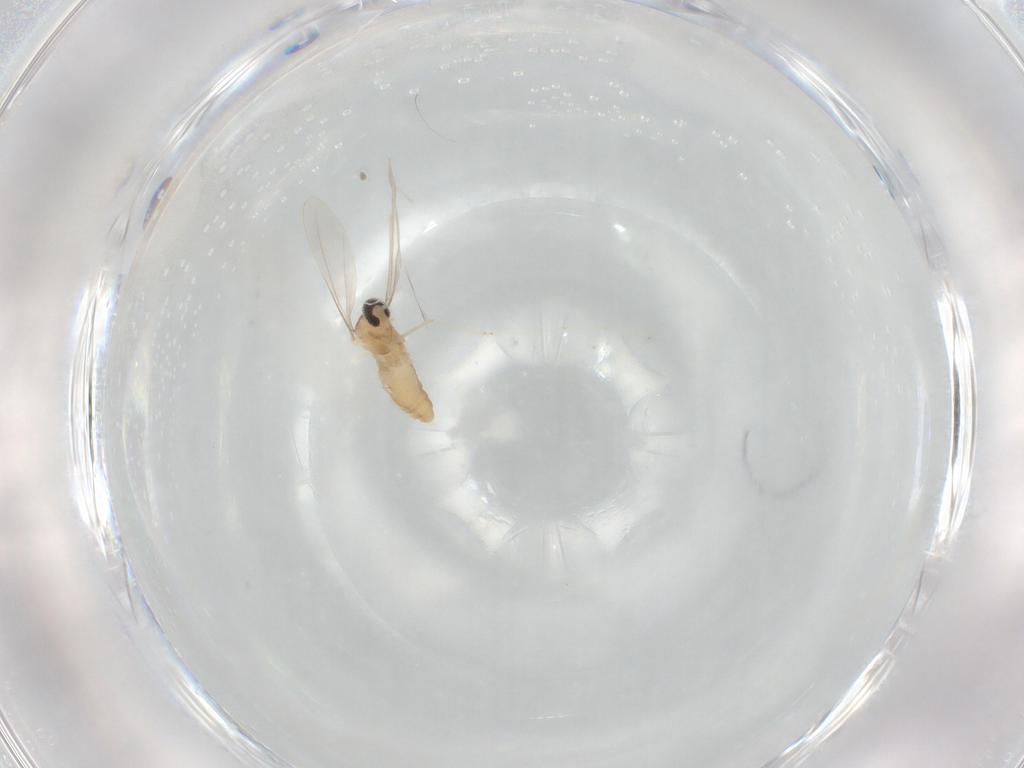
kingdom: Animalia
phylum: Arthropoda
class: Insecta
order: Diptera
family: Cecidomyiidae
